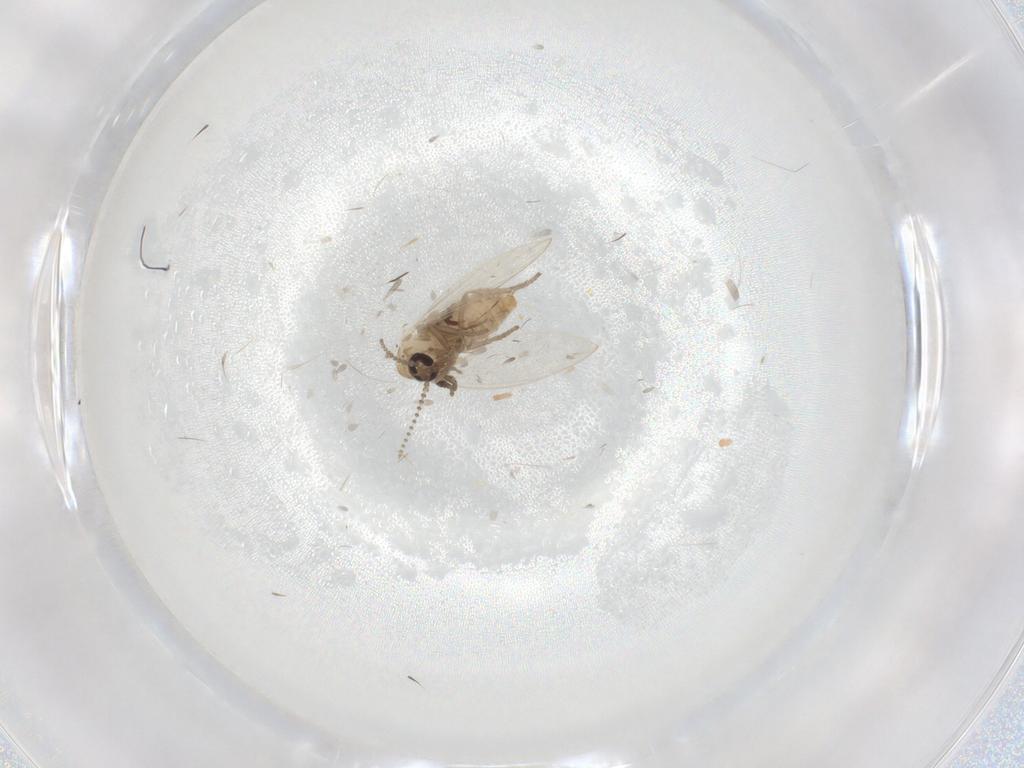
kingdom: Animalia
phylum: Arthropoda
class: Insecta
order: Diptera
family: Psychodidae
